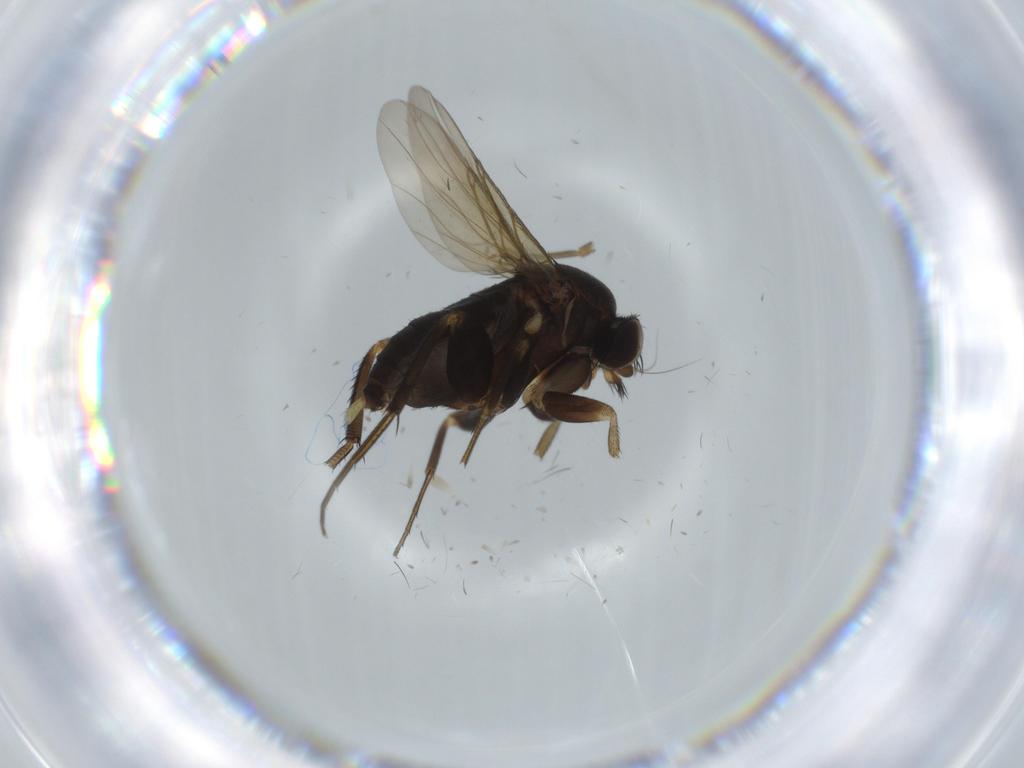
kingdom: Animalia
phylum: Arthropoda
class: Insecta
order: Diptera
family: Phoridae
